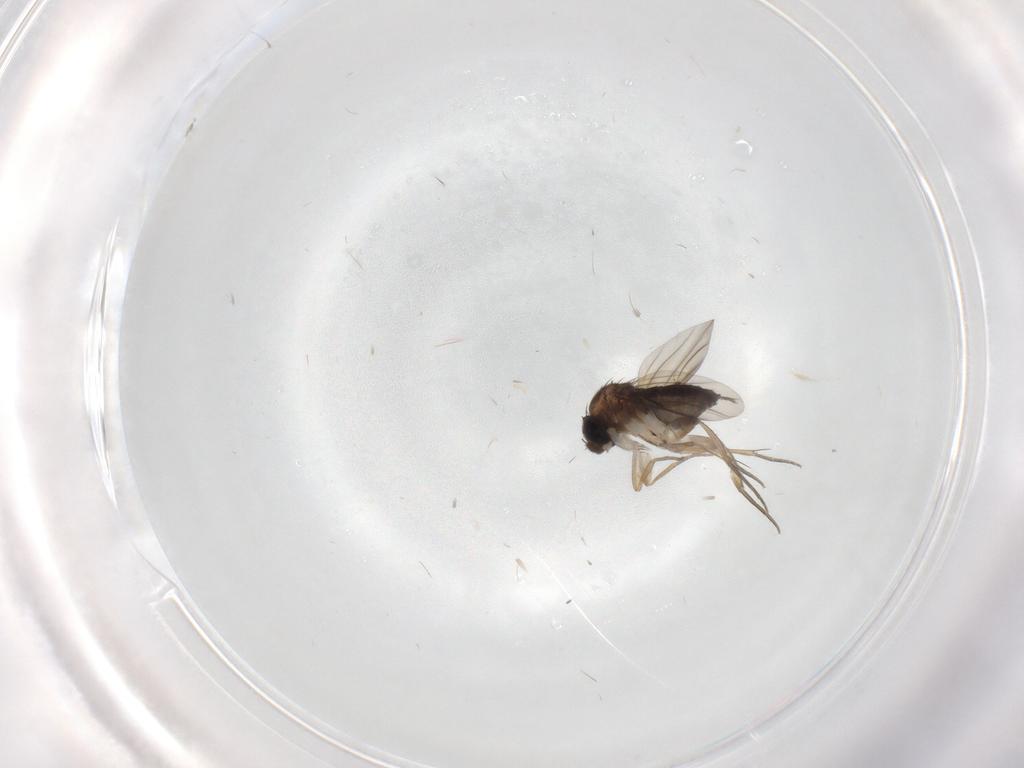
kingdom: Animalia
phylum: Arthropoda
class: Insecta
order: Diptera
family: Phoridae
